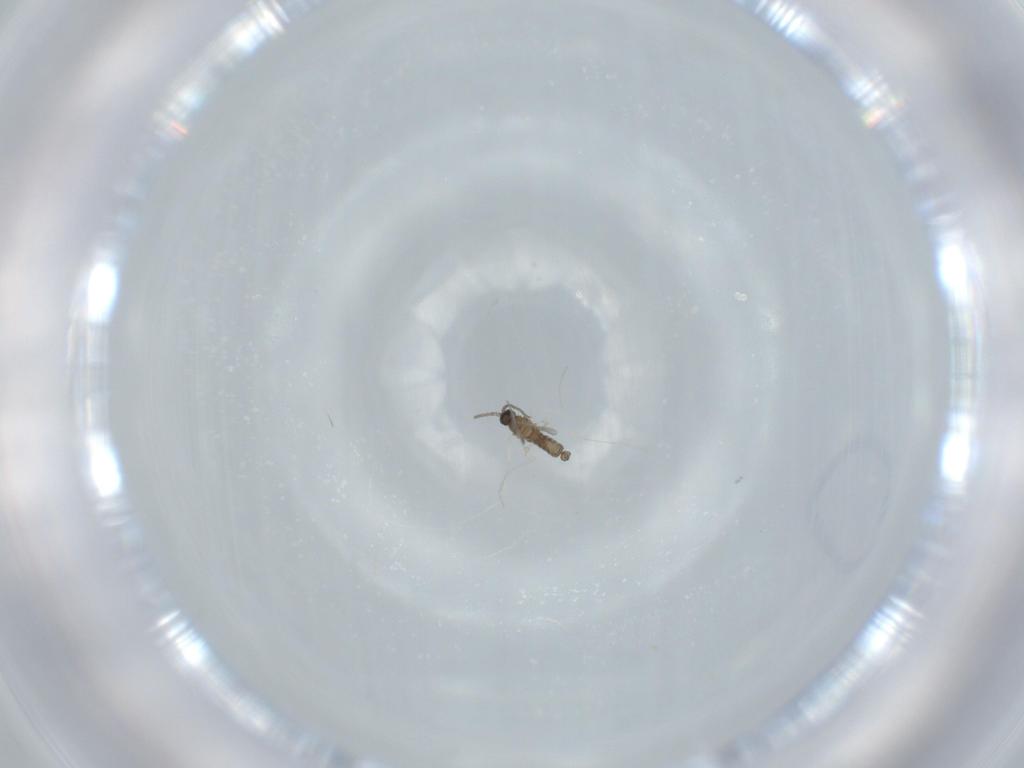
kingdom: Animalia
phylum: Arthropoda
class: Insecta
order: Diptera
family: Cecidomyiidae
